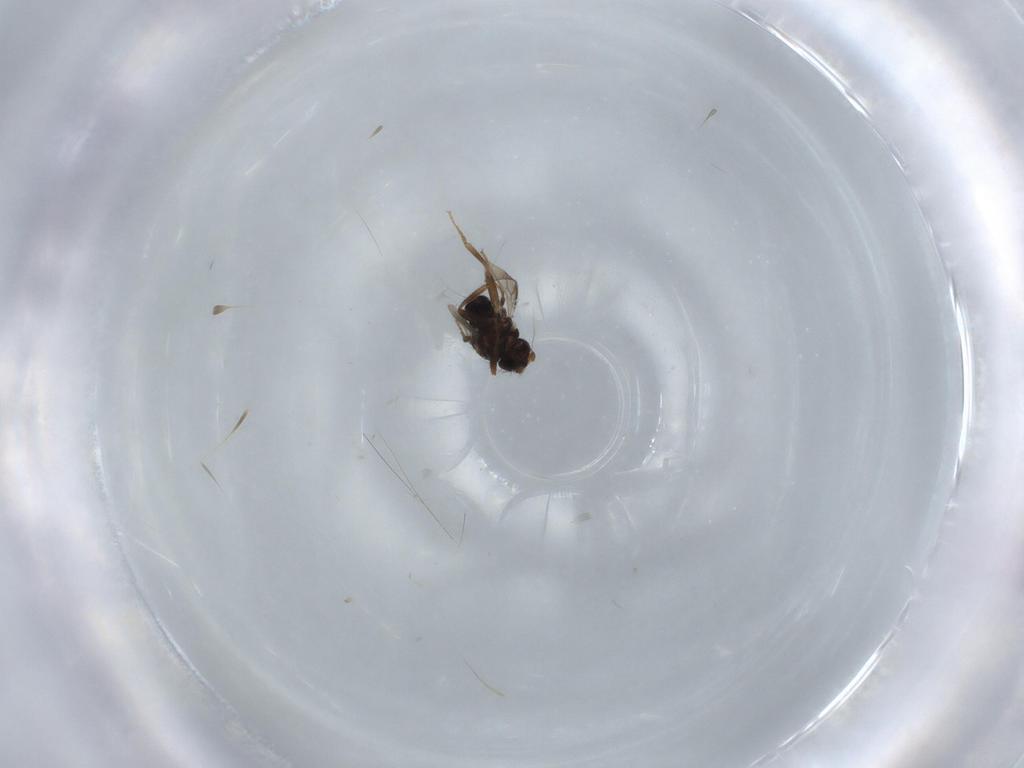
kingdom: Animalia
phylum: Arthropoda
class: Insecta
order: Diptera
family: Sphaeroceridae
